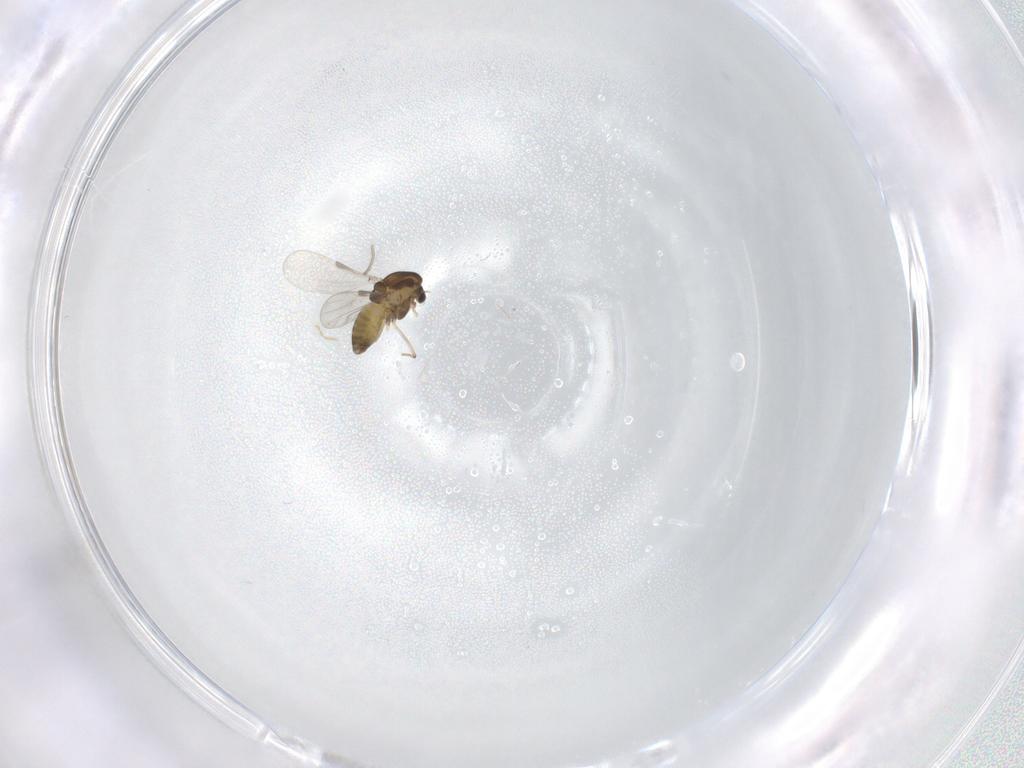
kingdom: Animalia
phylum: Arthropoda
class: Insecta
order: Diptera
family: Chironomidae
